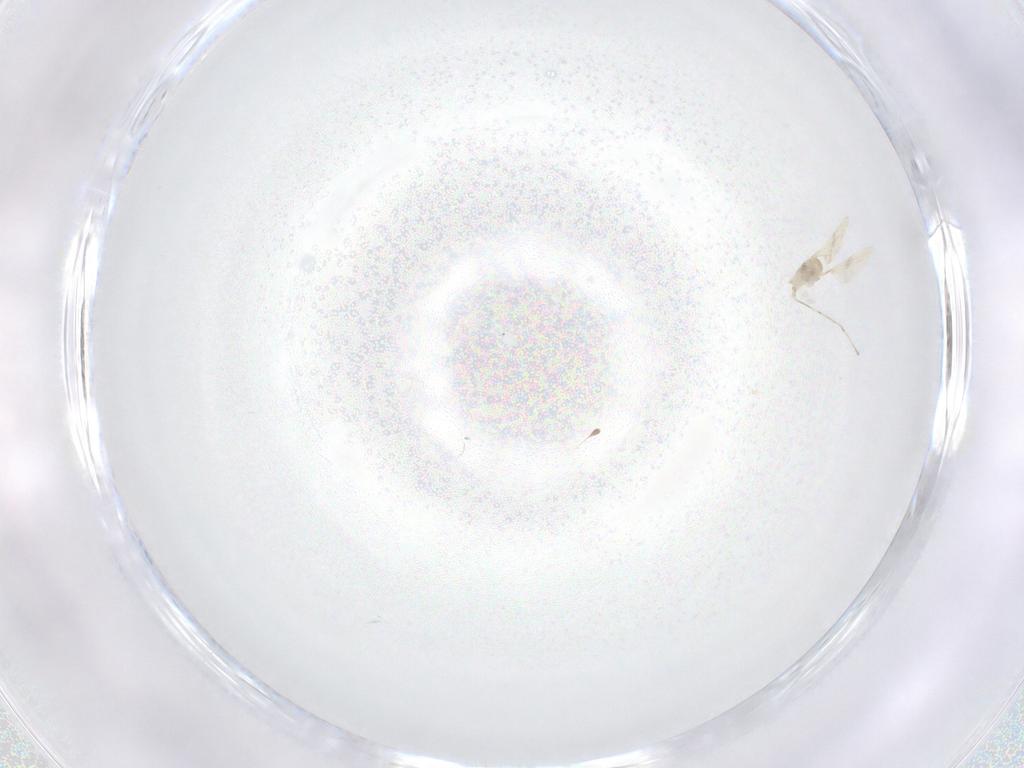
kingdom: Animalia
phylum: Arthropoda
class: Insecta
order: Diptera
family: Cecidomyiidae
